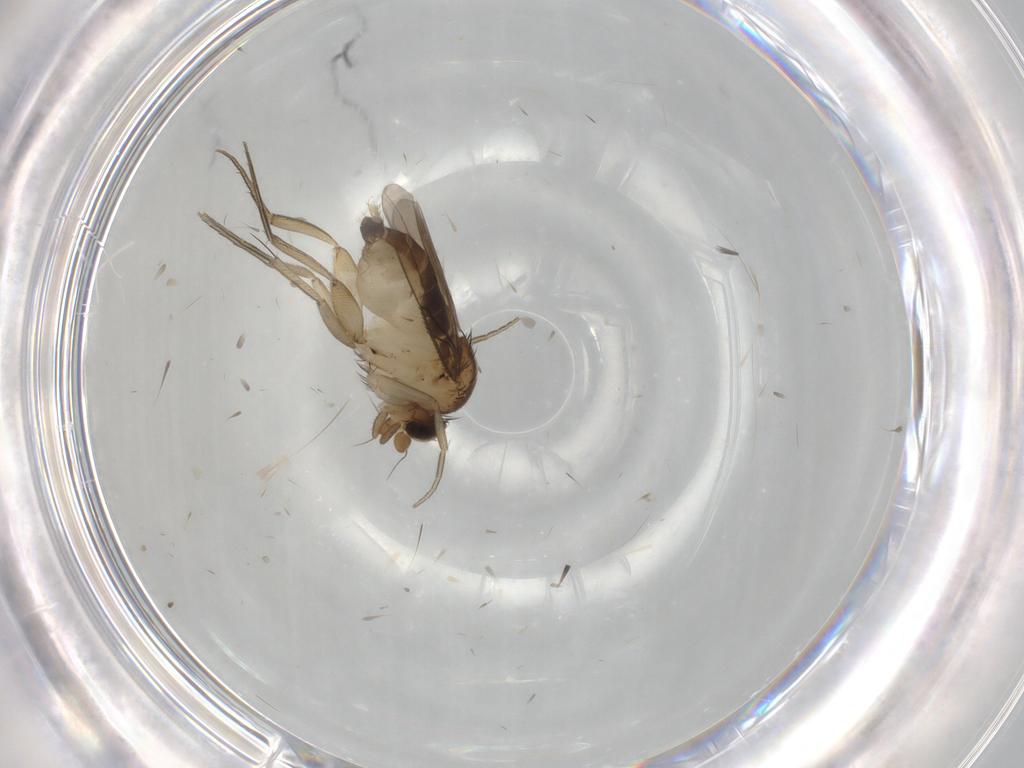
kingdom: Animalia
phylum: Arthropoda
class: Insecta
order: Diptera
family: Phoridae
